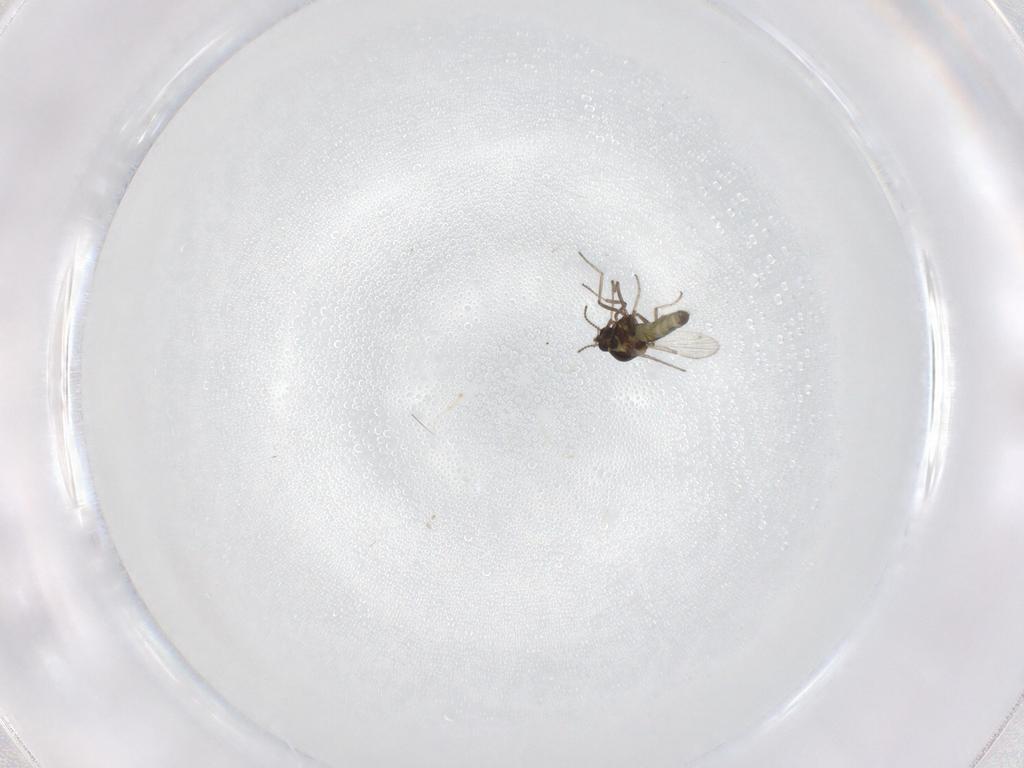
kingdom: Animalia
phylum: Arthropoda
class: Insecta
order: Diptera
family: Ceratopogonidae
